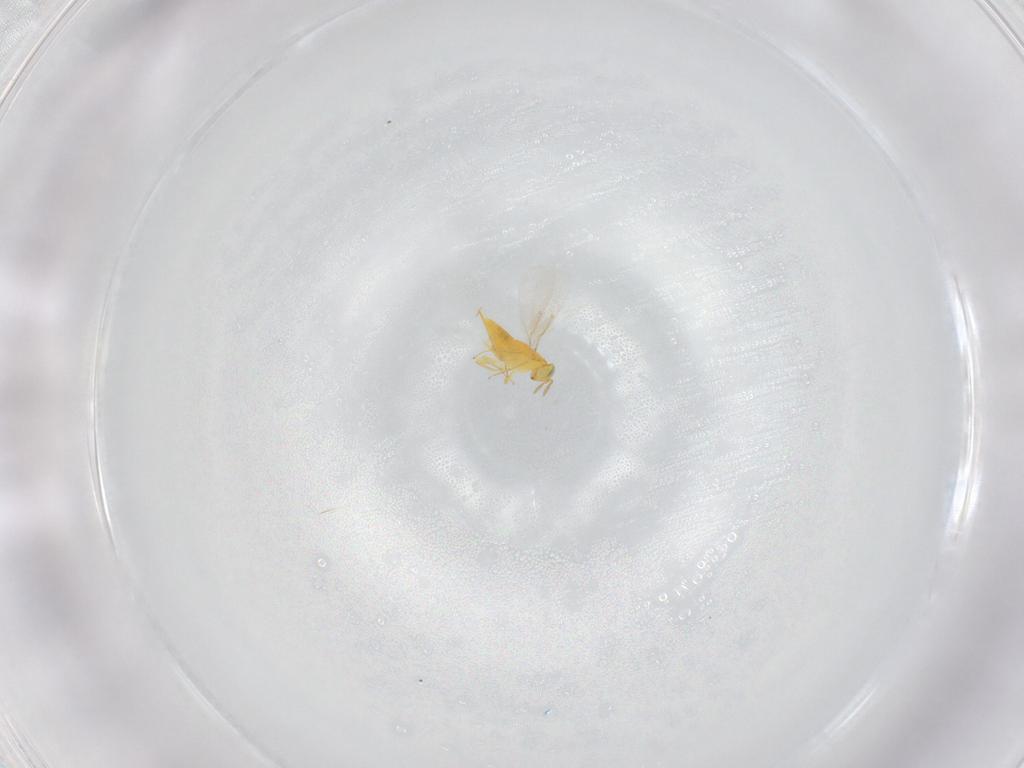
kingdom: Animalia
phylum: Arthropoda
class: Insecta
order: Hymenoptera
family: Aphelinidae
